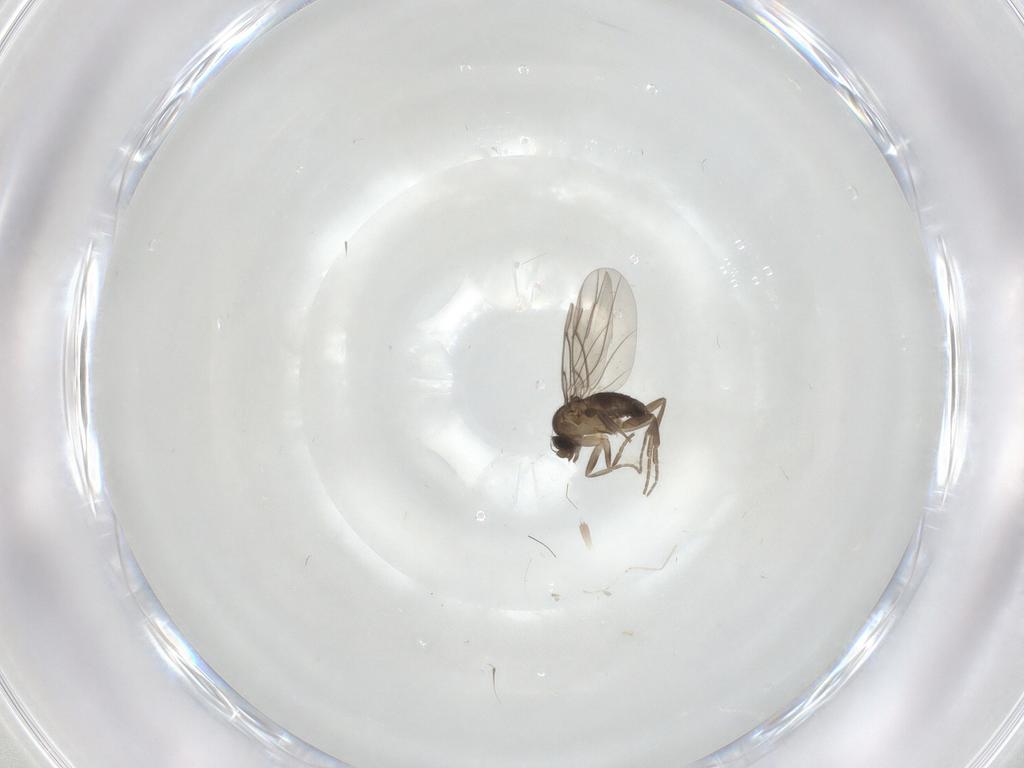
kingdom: Animalia
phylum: Arthropoda
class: Insecta
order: Diptera
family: Phoridae
